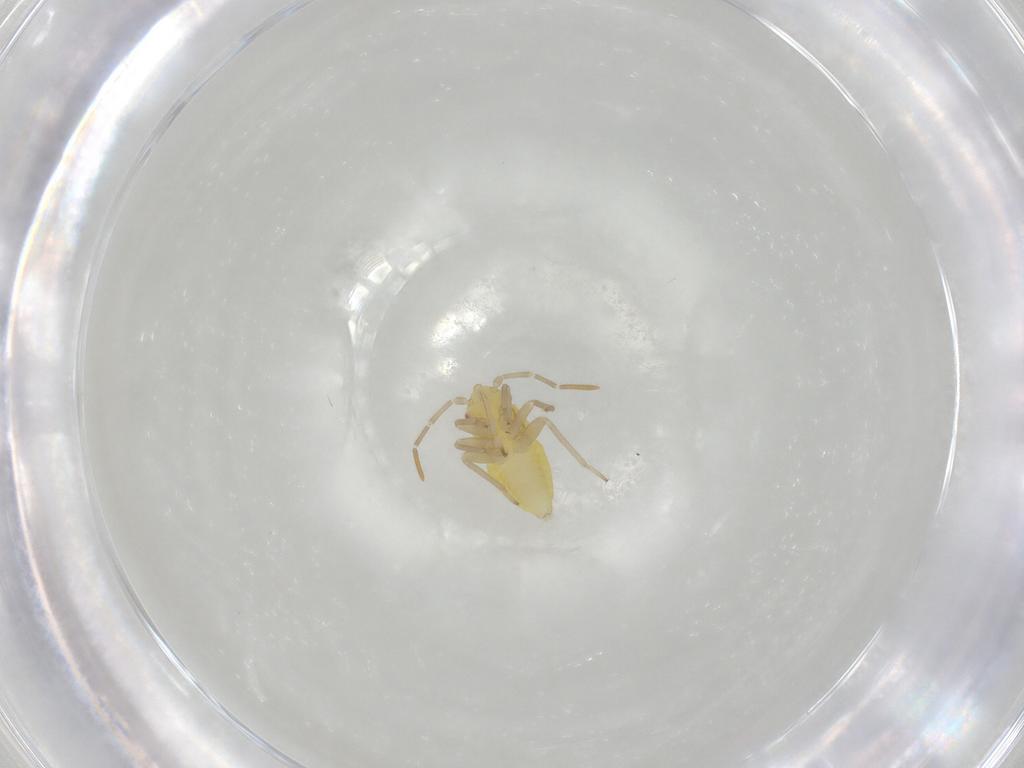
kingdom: Animalia
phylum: Arthropoda
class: Insecta
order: Hemiptera
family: Miridae
